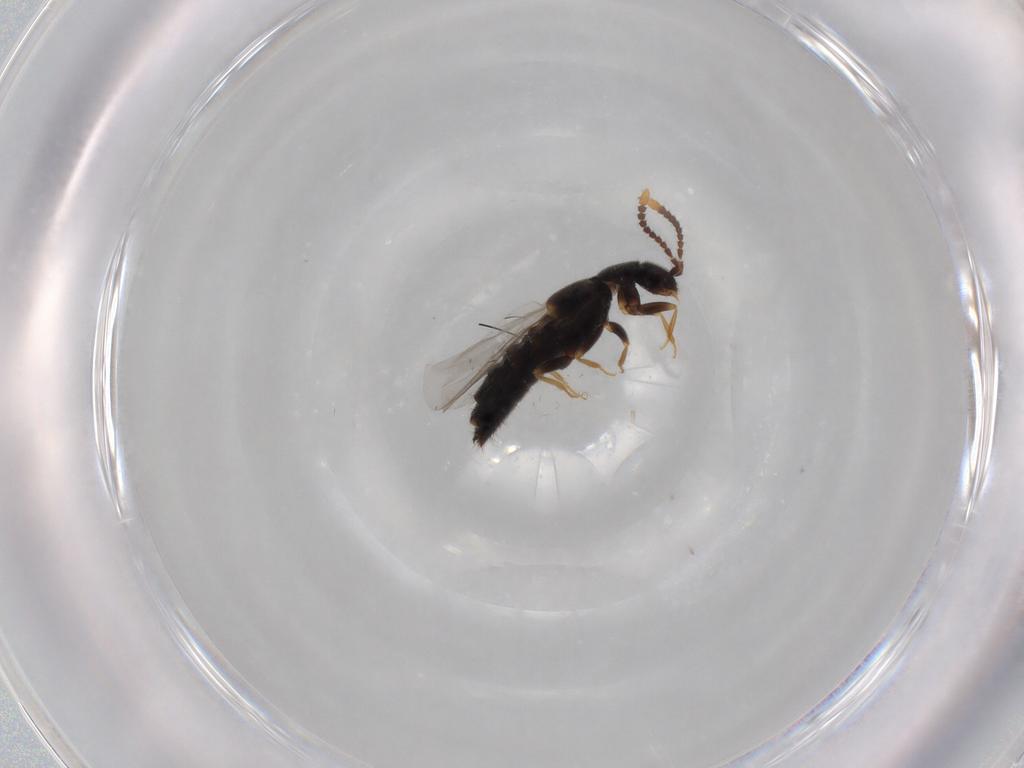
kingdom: Animalia
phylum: Arthropoda
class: Insecta
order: Coleoptera
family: Staphylinidae
